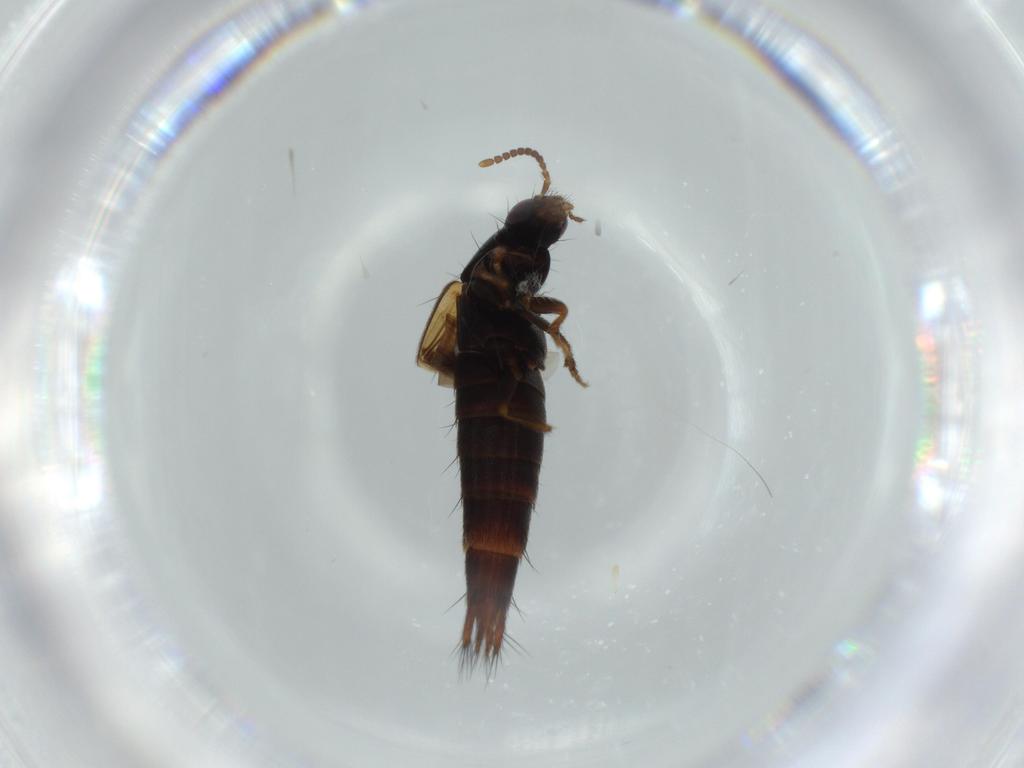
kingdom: Animalia
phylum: Arthropoda
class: Insecta
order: Coleoptera
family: Staphylinidae
